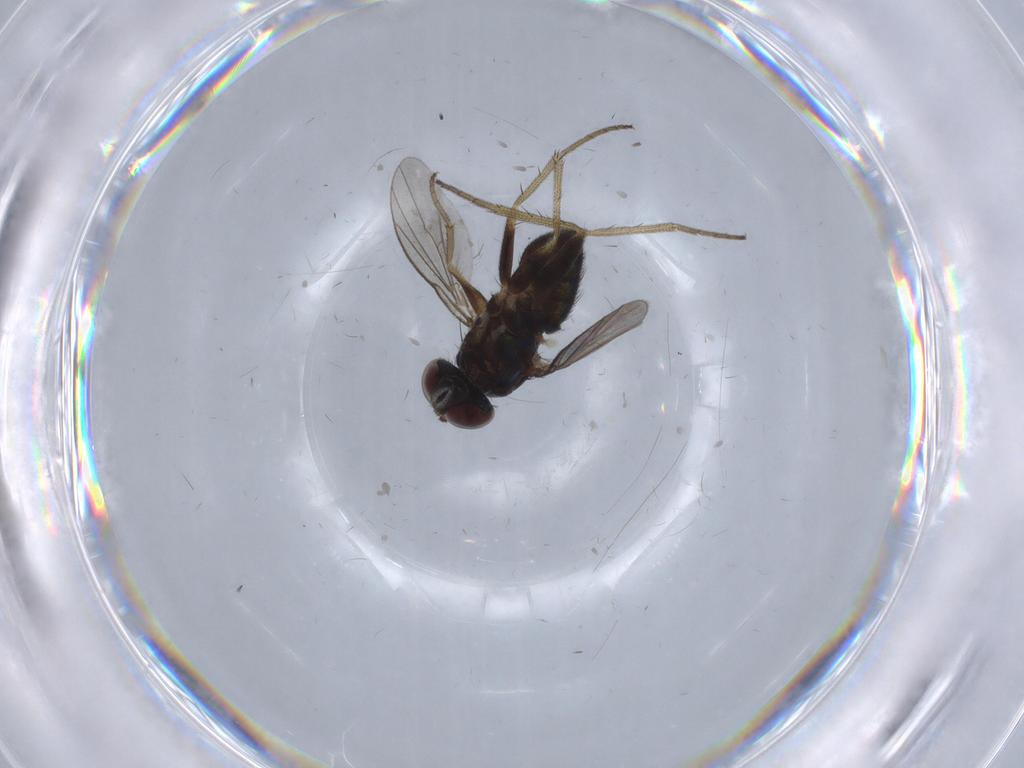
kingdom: Animalia
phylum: Arthropoda
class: Insecta
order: Diptera
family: Dolichopodidae
